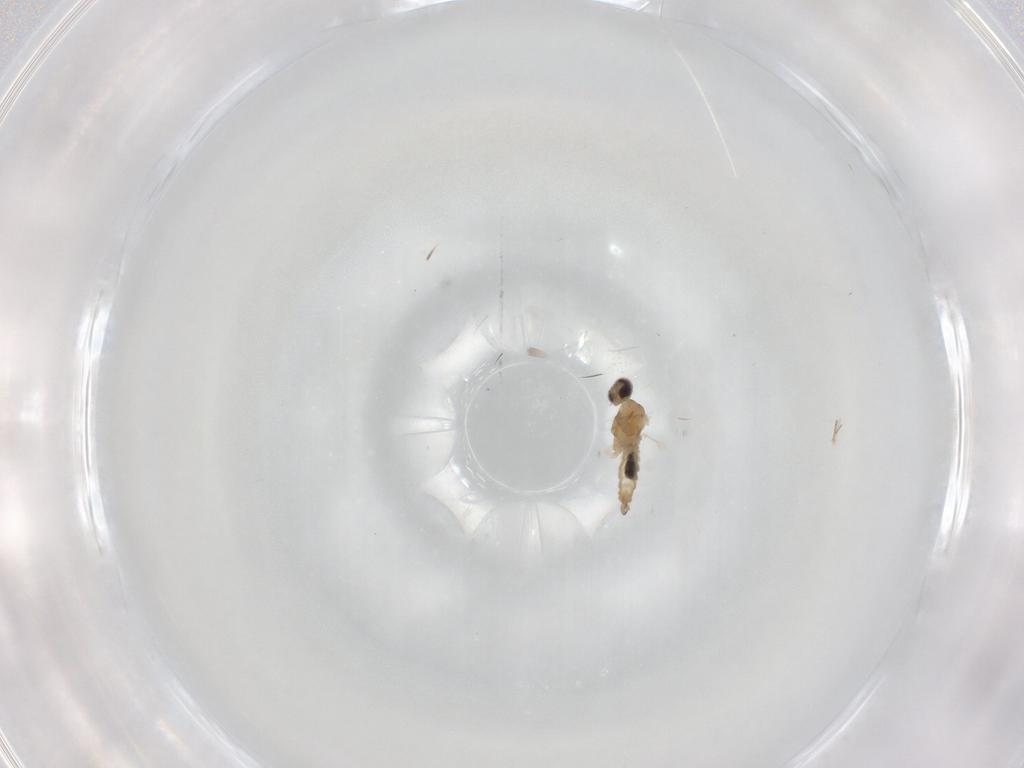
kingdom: Animalia
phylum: Arthropoda
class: Insecta
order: Diptera
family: Cecidomyiidae
